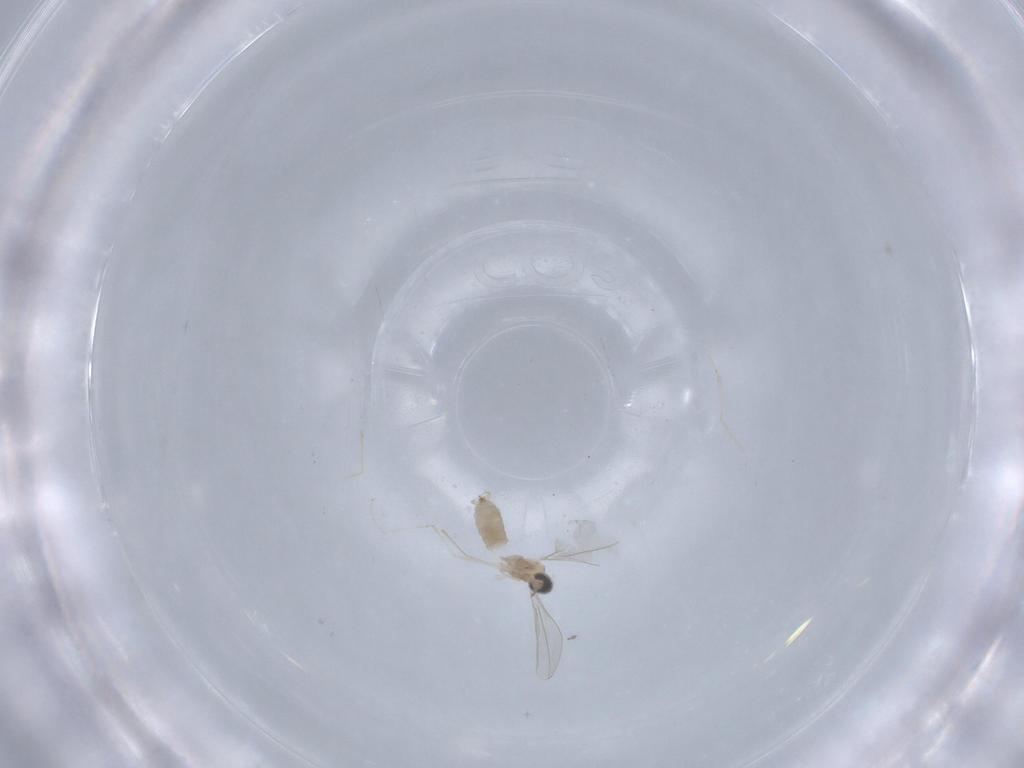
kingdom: Animalia
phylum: Arthropoda
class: Insecta
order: Diptera
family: Cecidomyiidae
